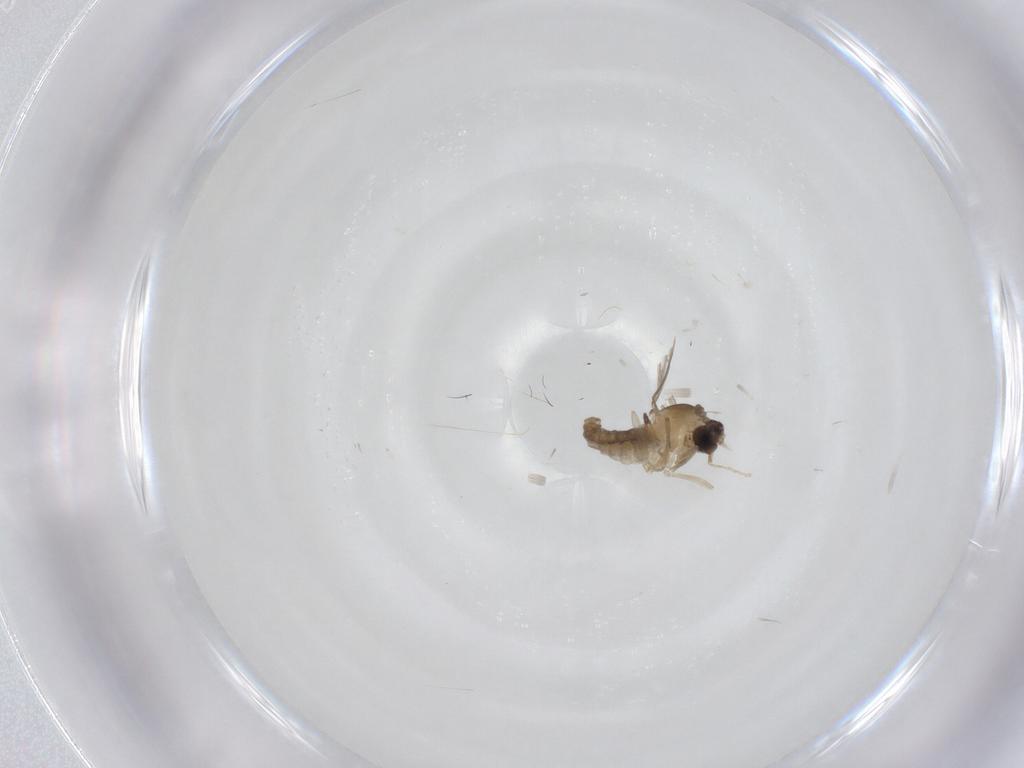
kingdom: Animalia
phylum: Arthropoda
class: Insecta
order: Diptera
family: Cecidomyiidae
